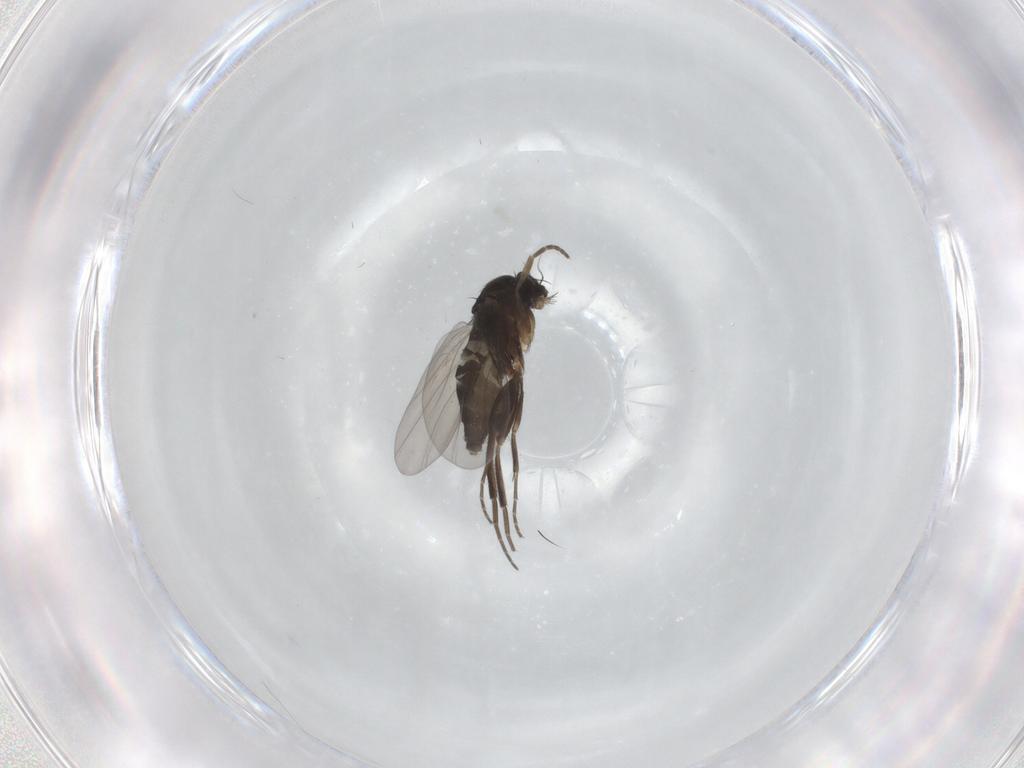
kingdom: Animalia
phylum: Arthropoda
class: Insecta
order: Diptera
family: Phoridae
